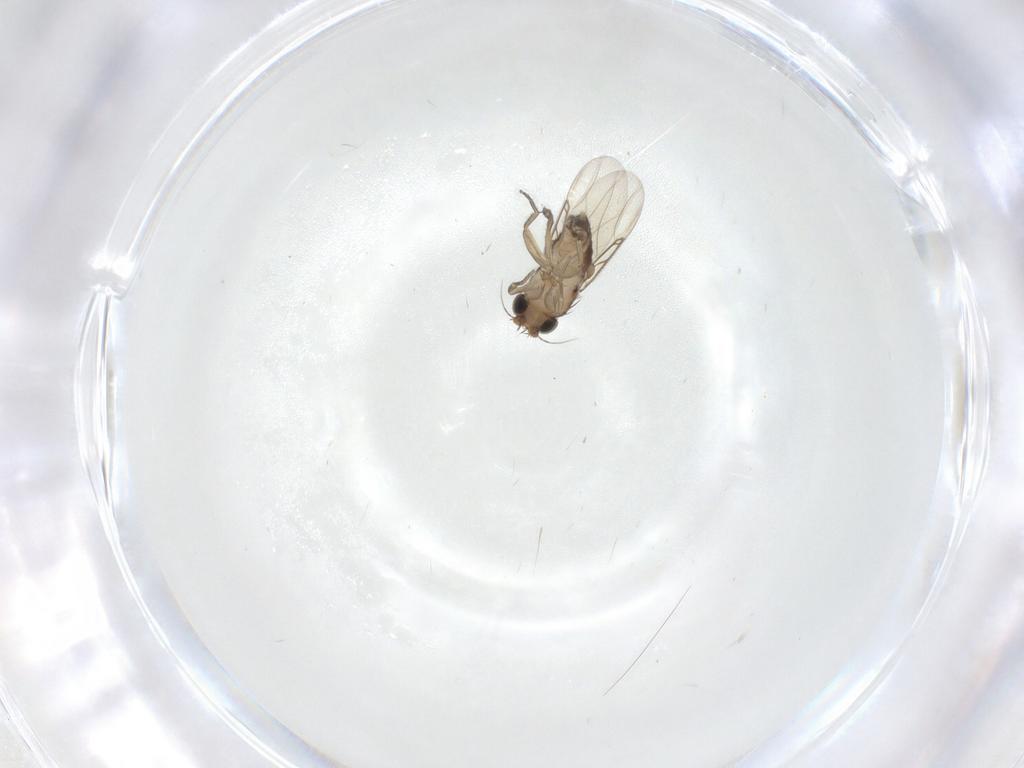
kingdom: Animalia
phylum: Arthropoda
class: Insecta
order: Diptera
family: Phoridae
